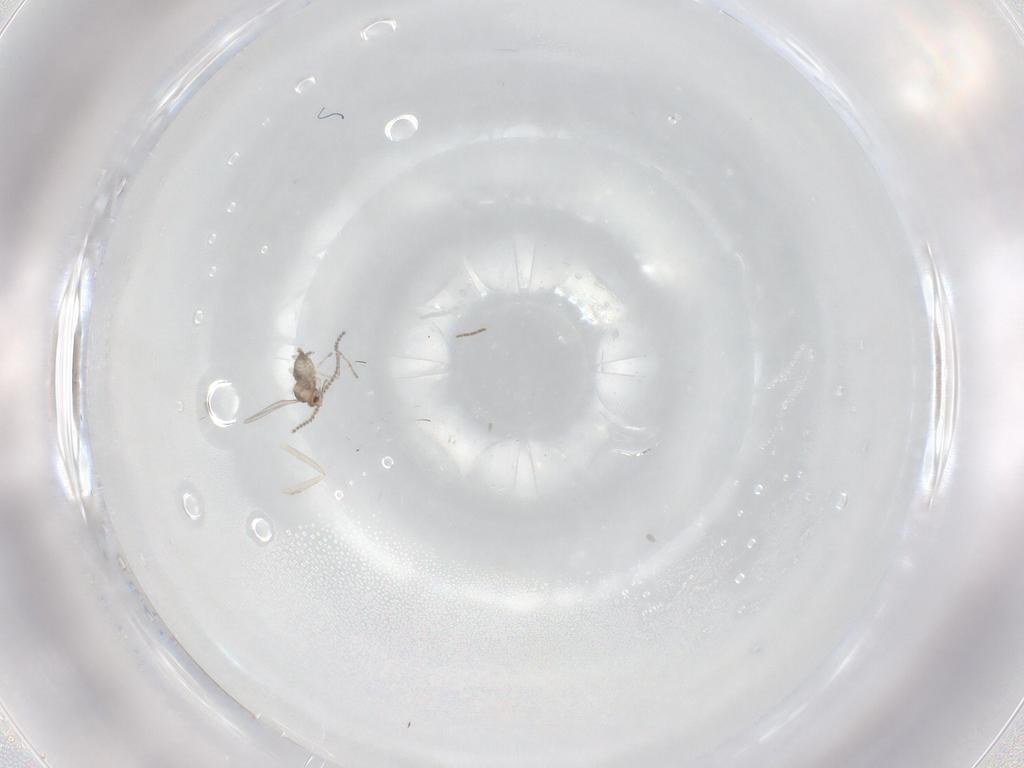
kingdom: Animalia
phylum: Arthropoda
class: Insecta
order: Diptera
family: Cecidomyiidae
